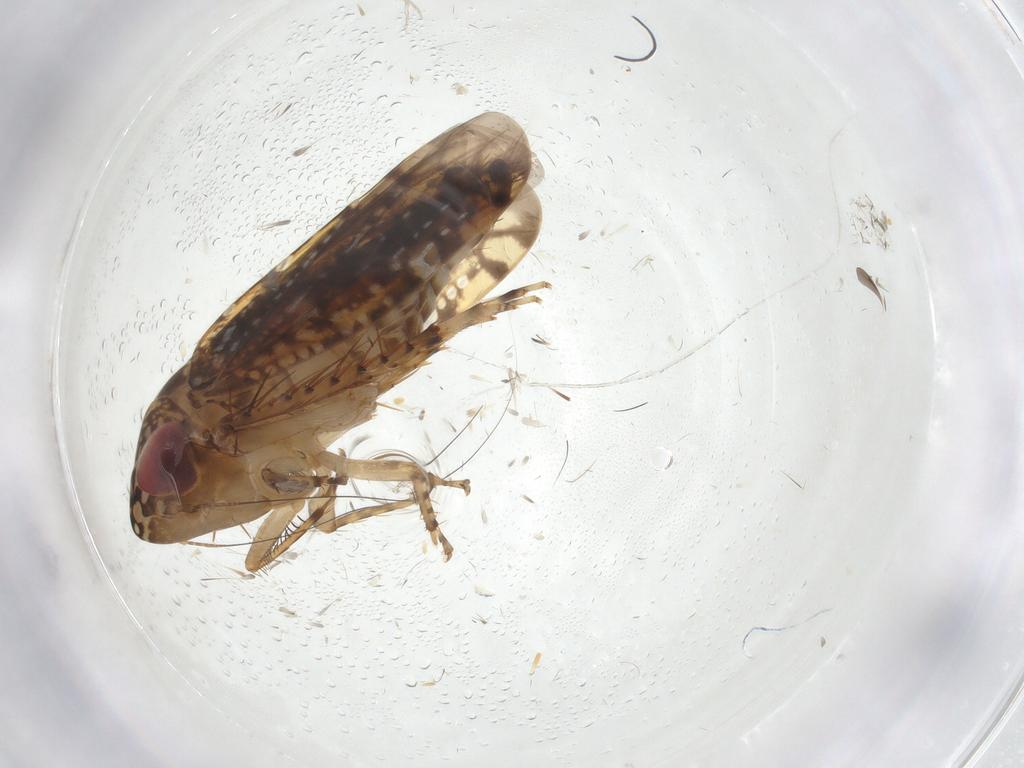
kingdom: Animalia
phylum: Arthropoda
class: Insecta
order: Hemiptera
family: Cicadellidae
